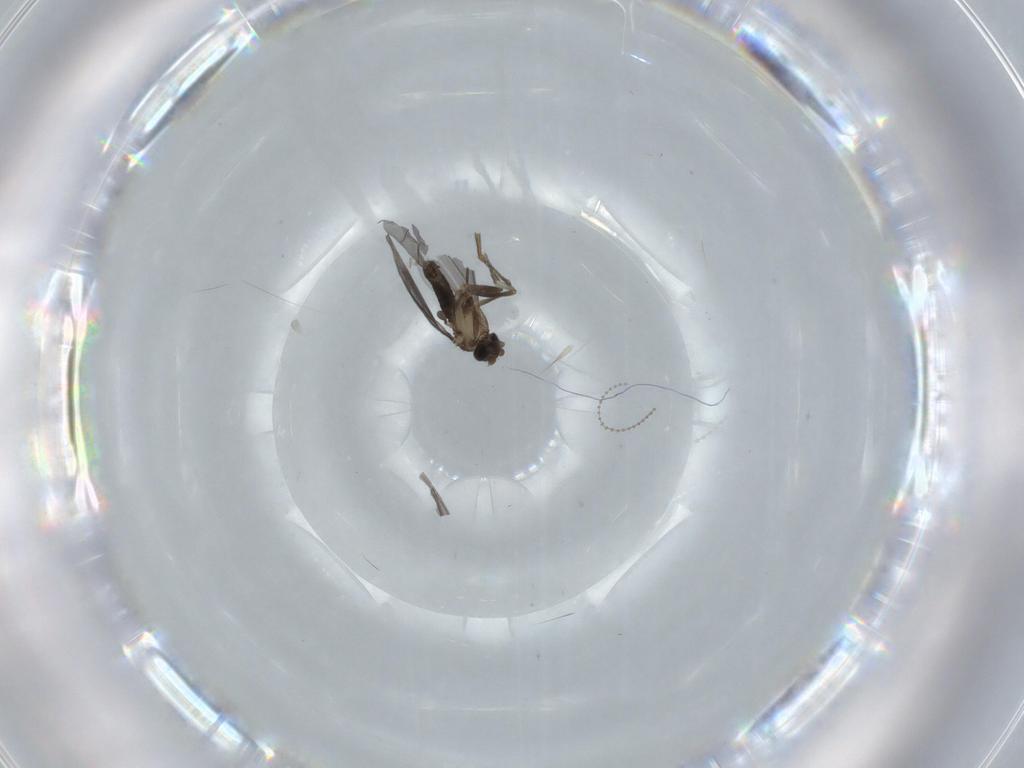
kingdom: Animalia
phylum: Arthropoda
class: Insecta
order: Diptera
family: Phoridae
